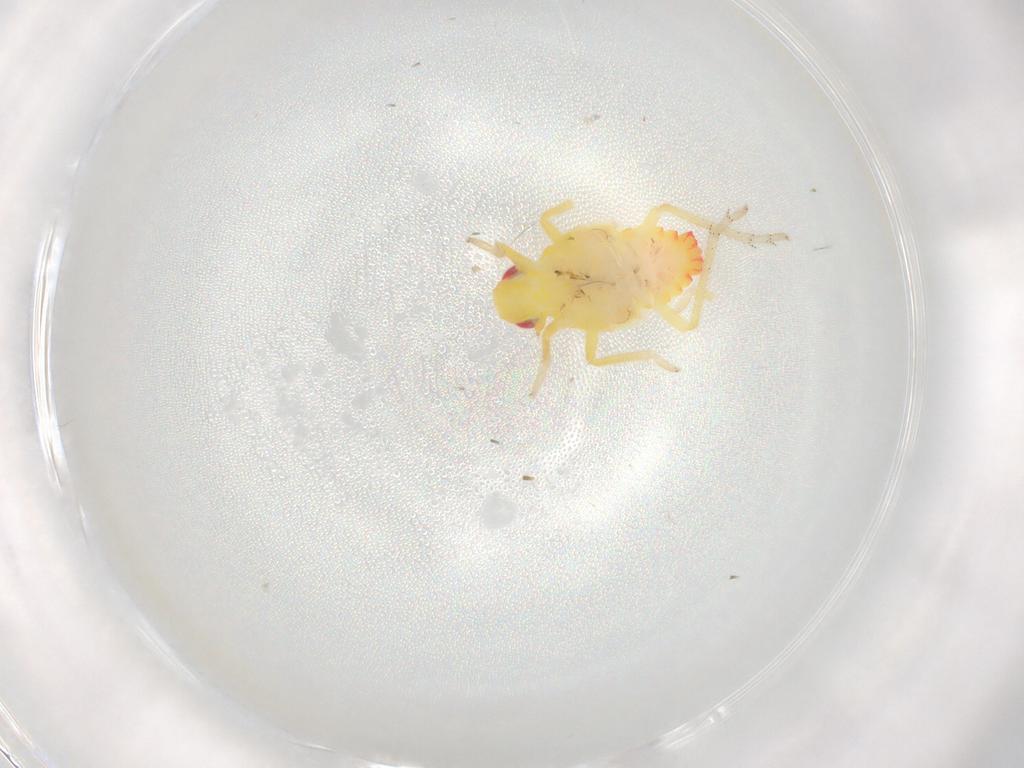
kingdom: Animalia
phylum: Arthropoda
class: Insecta
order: Hemiptera
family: Tropiduchidae
